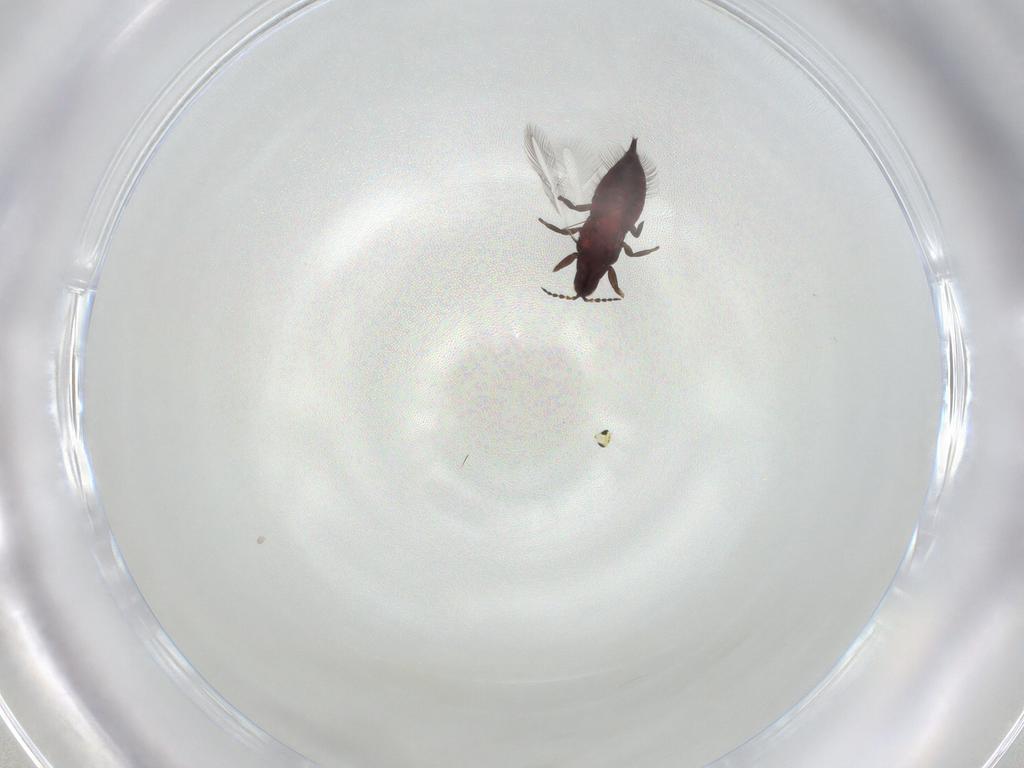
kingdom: Animalia
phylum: Arthropoda
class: Insecta
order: Thysanoptera
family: Phlaeothripidae
